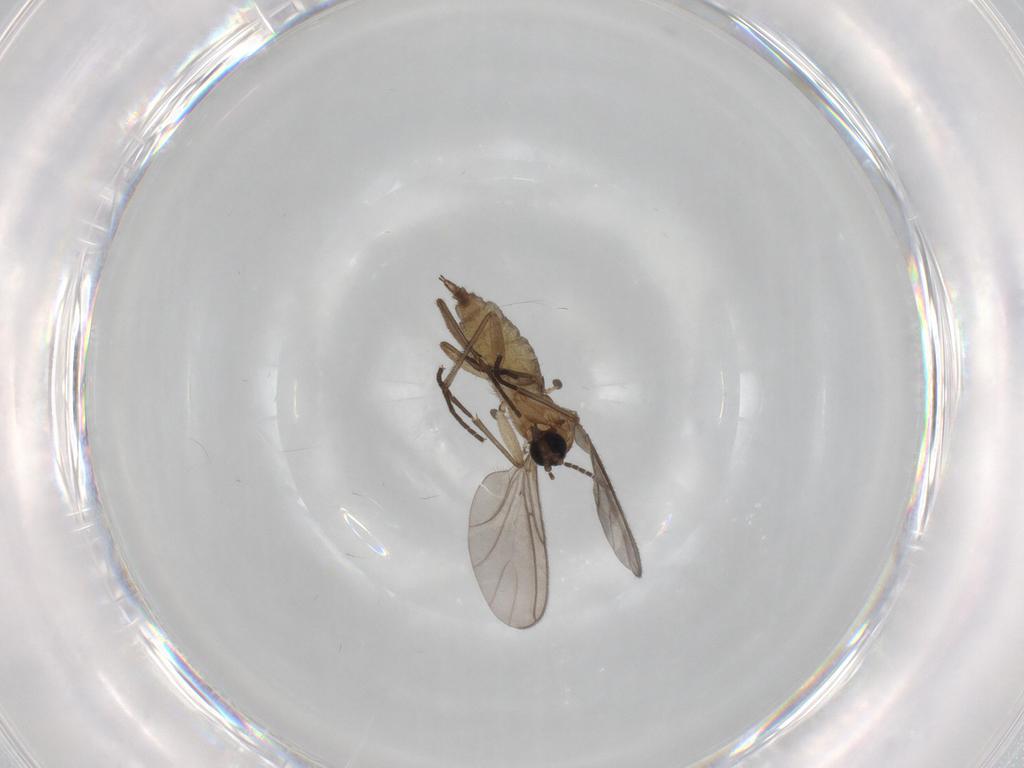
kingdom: Animalia
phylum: Arthropoda
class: Insecta
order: Diptera
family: Sciaridae
